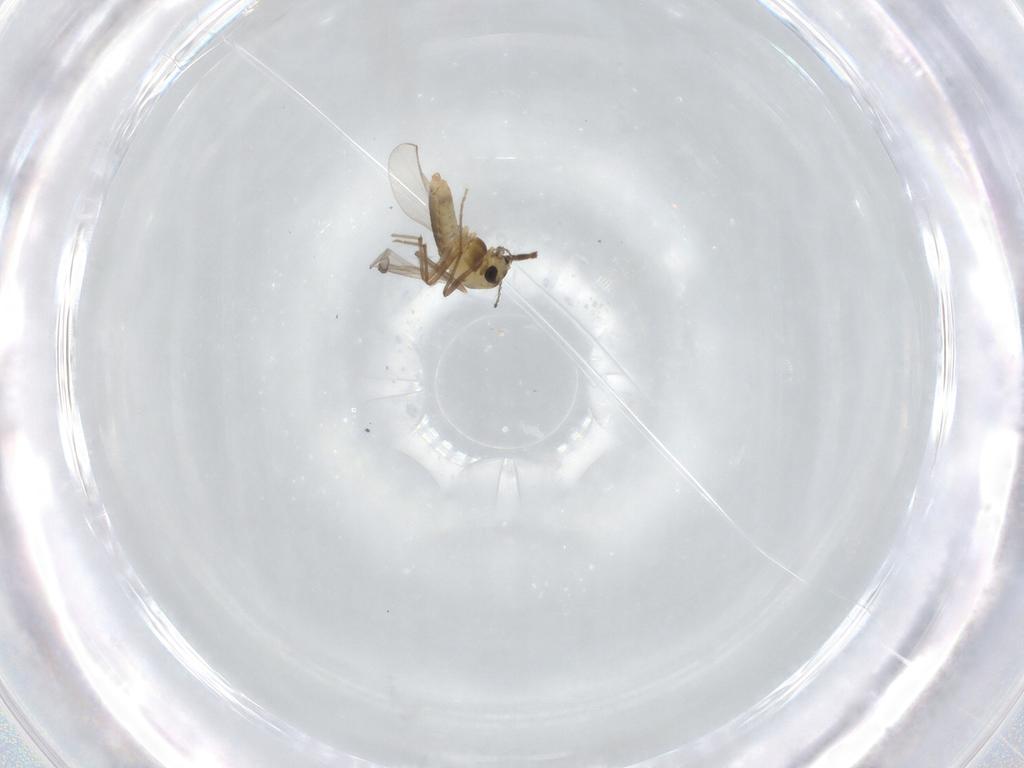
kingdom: Animalia
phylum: Arthropoda
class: Insecta
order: Diptera
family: Chironomidae
